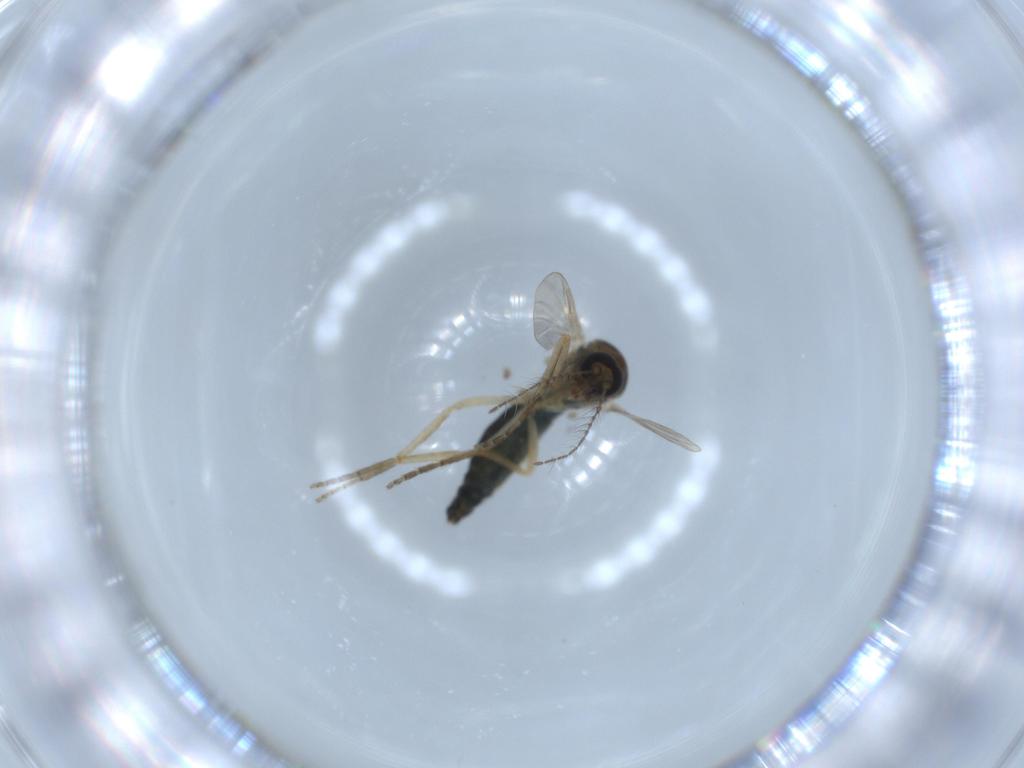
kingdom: Animalia
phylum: Arthropoda
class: Insecta
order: Diptera
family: Ceratopogonidae
